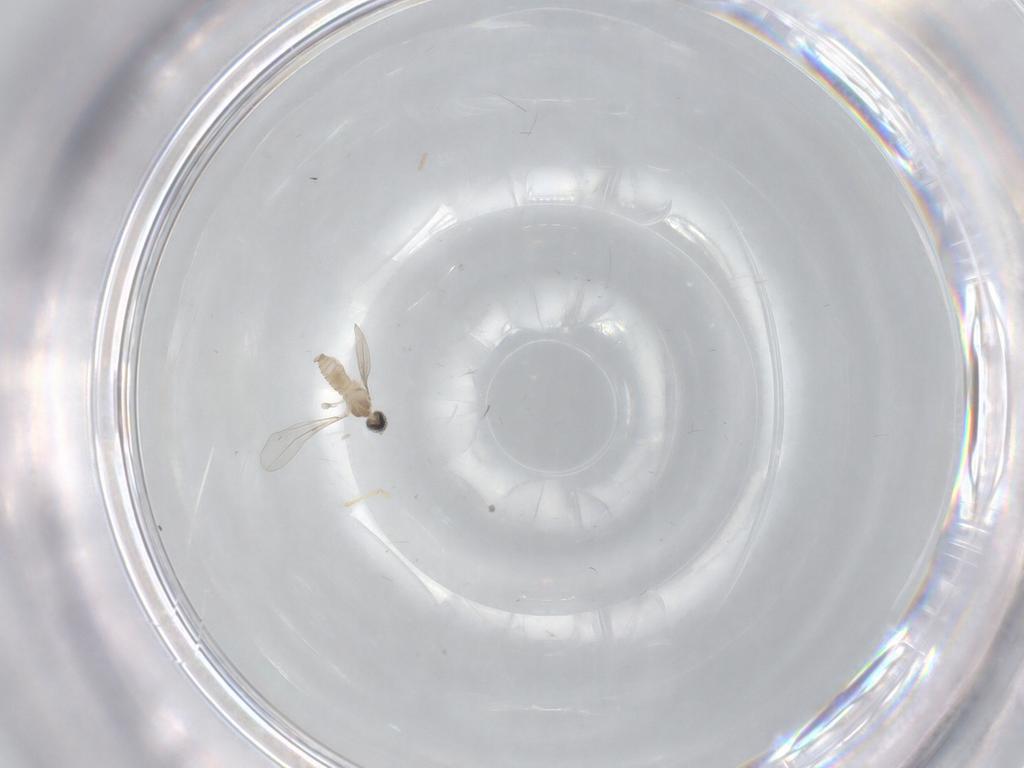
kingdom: Animalia
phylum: Arthropoda
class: Insecta
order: Diptera
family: Cecidomyiidae
